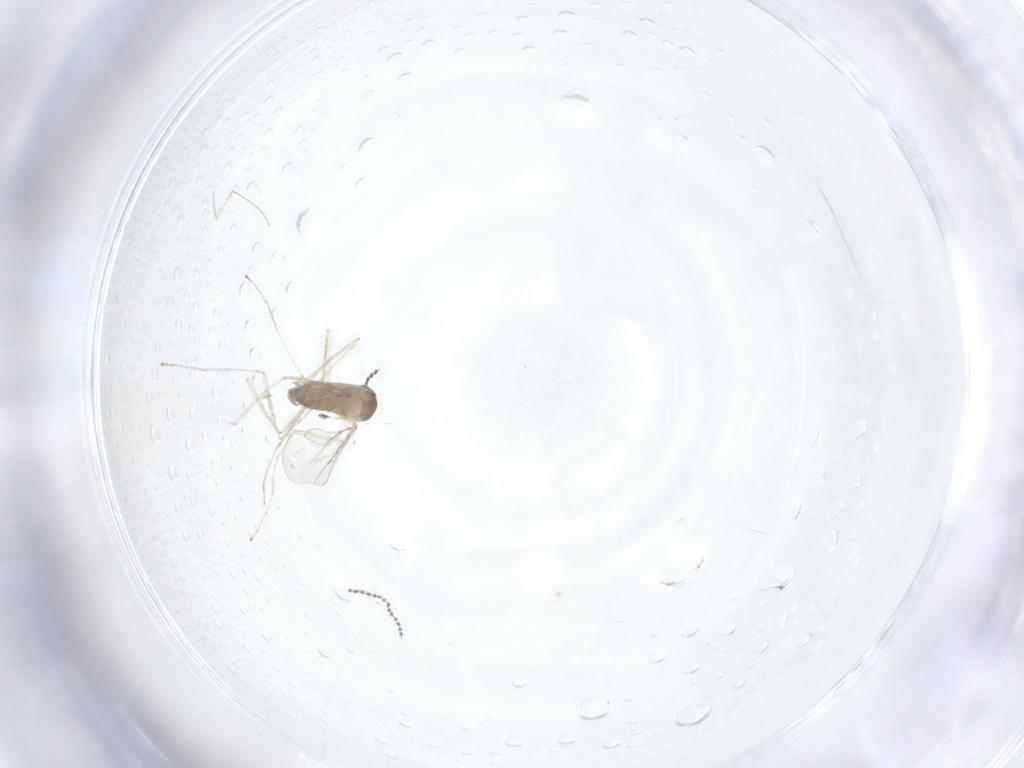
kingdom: Animalia
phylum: Arthropoda
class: Insecta
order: Diptera
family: Cecidomyiidae
